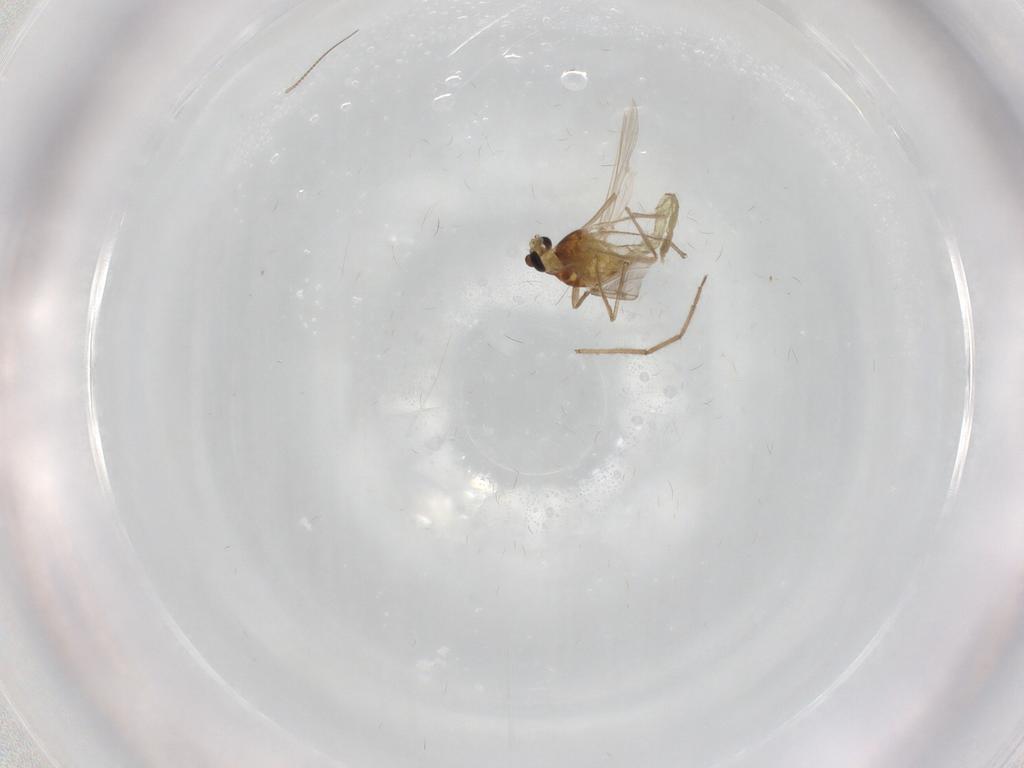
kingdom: Animalia
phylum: Arthropoda
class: Insecta
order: Diptera
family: Chironomidae
